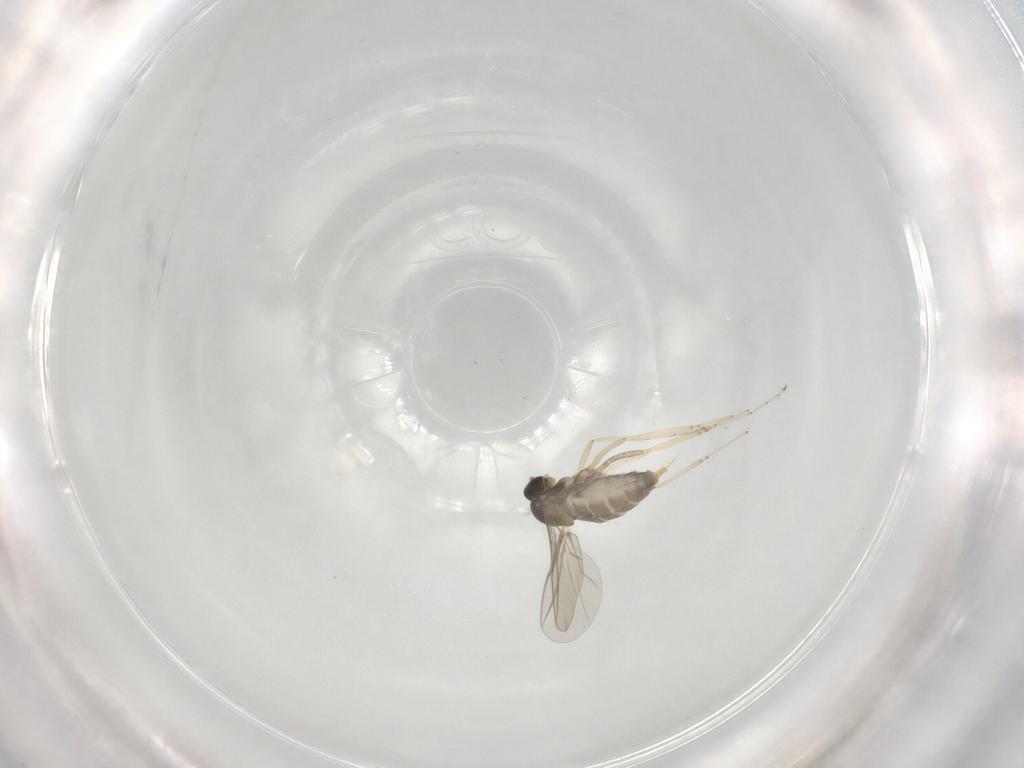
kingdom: Animalia
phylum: Arthropoda
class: Insecta
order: Diptera
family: Cecidomyiidae
